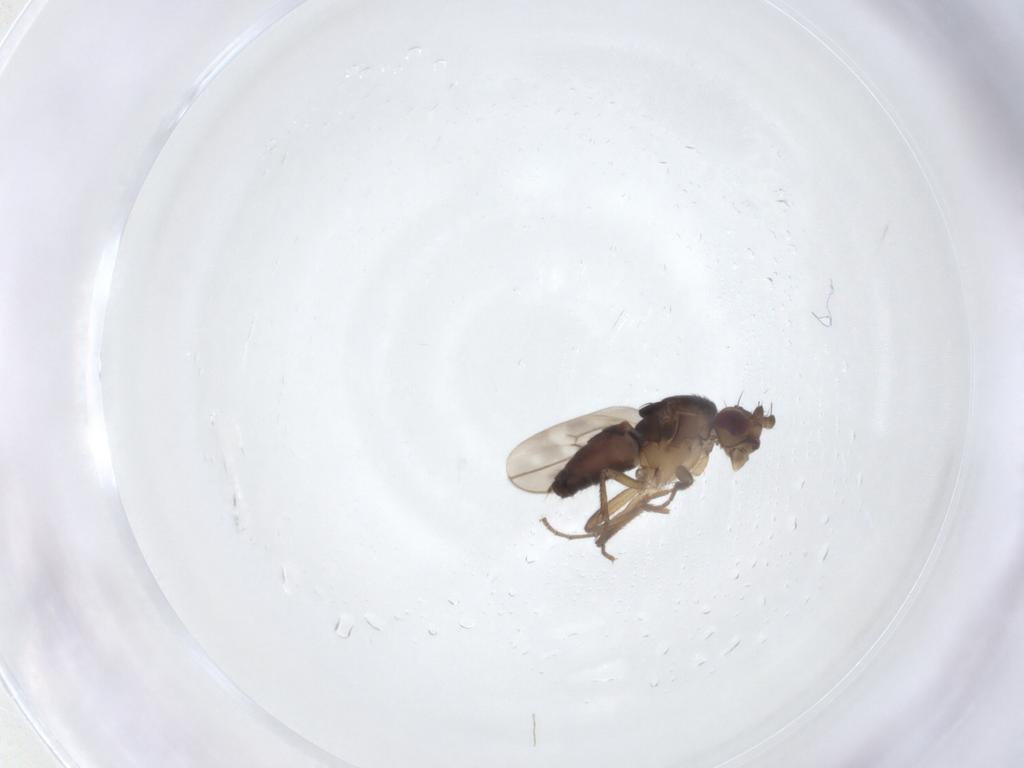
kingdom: Animalia
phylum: Arthropoda
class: Insecta
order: Diptera
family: Sphaeroceridae
